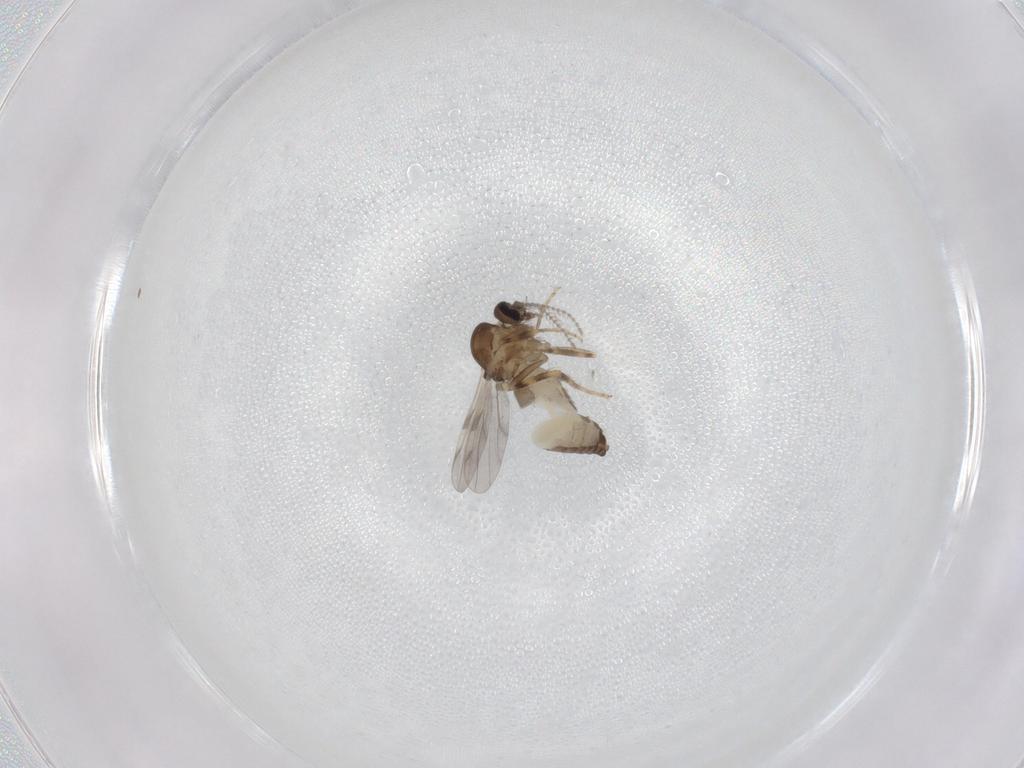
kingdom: Animalia
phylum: Arthropoda
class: Insecta
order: Diptera
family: Ceratopogonidae
